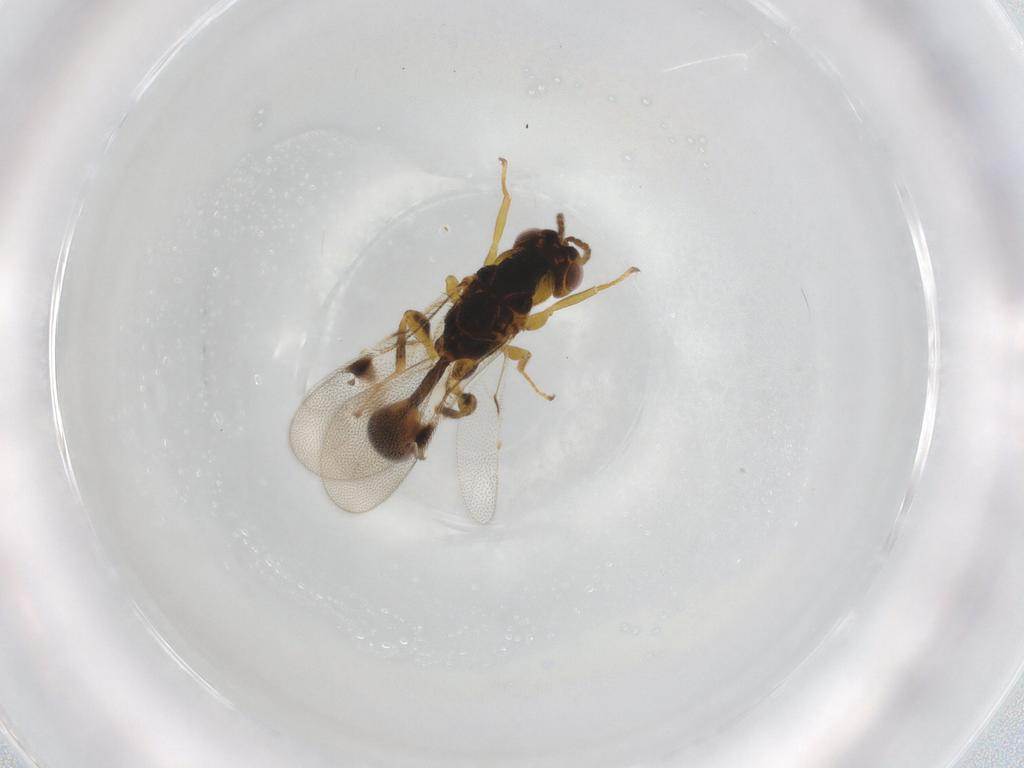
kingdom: Animalia
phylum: Arthropoda
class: Insecta
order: Hymenoptera
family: Eurytomidae
